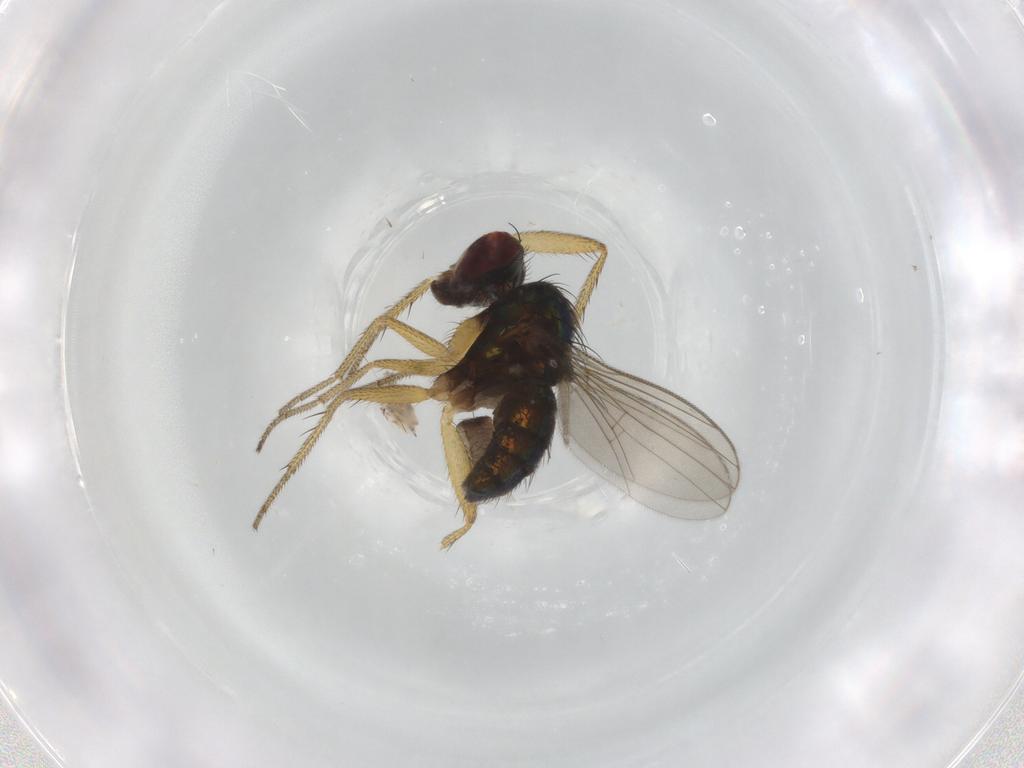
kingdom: Animalia
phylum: Arthropoda
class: Insecta
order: Diptera
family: Dolichopodidae
